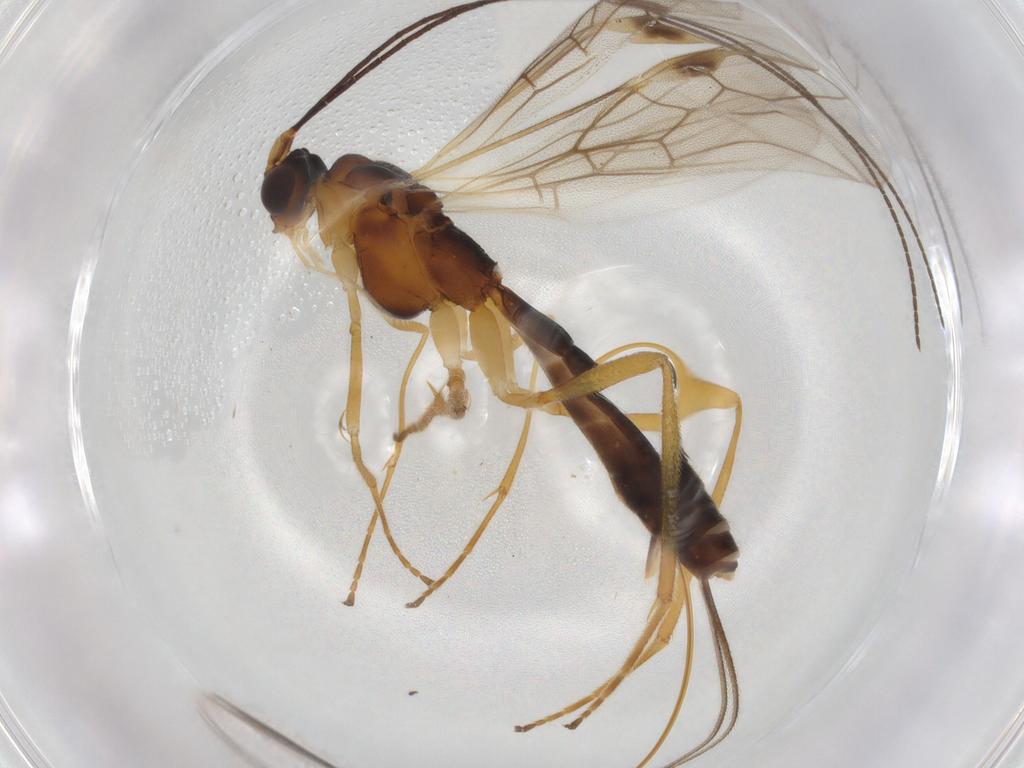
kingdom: Animalia
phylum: Arthropoda
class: Insecta
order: Hymenoptera
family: Braconidae
